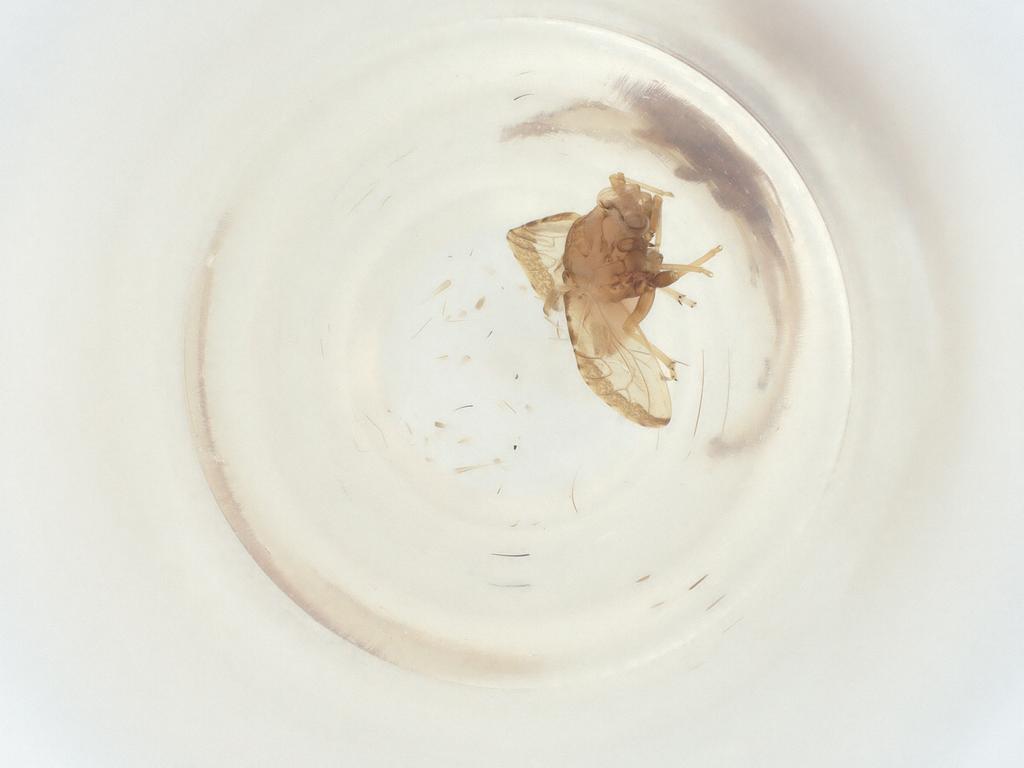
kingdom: Animalia
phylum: Arthropoda
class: Insecta
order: Hemiptera
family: Psyllidae
